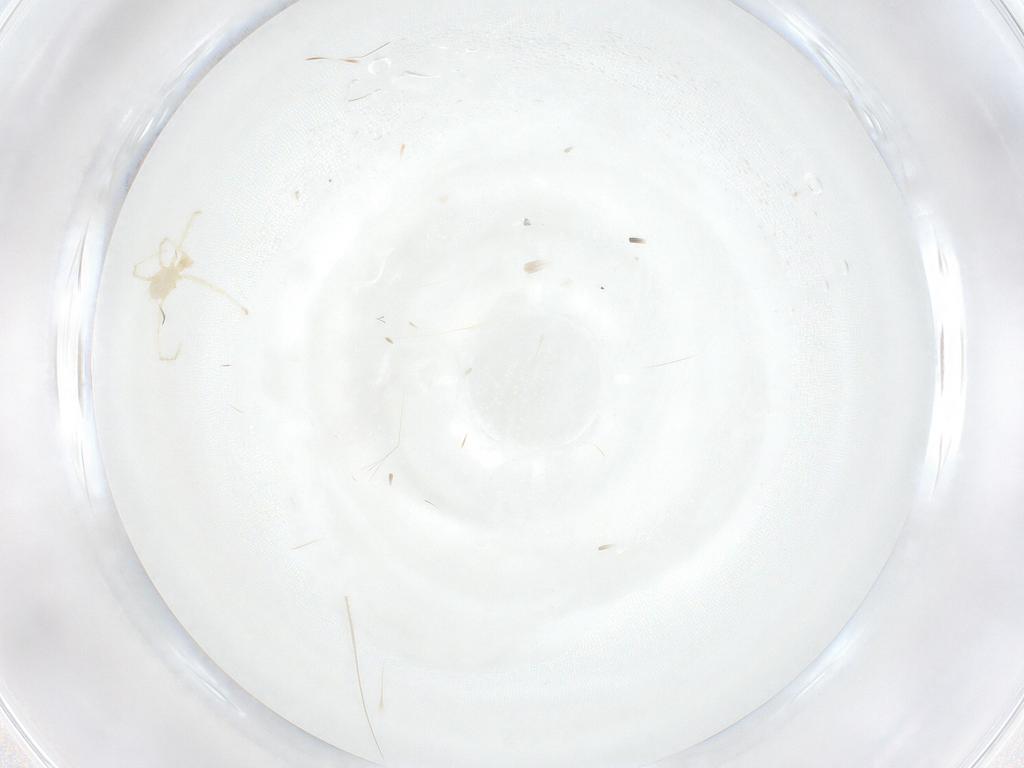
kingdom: Animalia
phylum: Arthropoda
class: Arachnida
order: Trombidiformes
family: Erythraeidae
